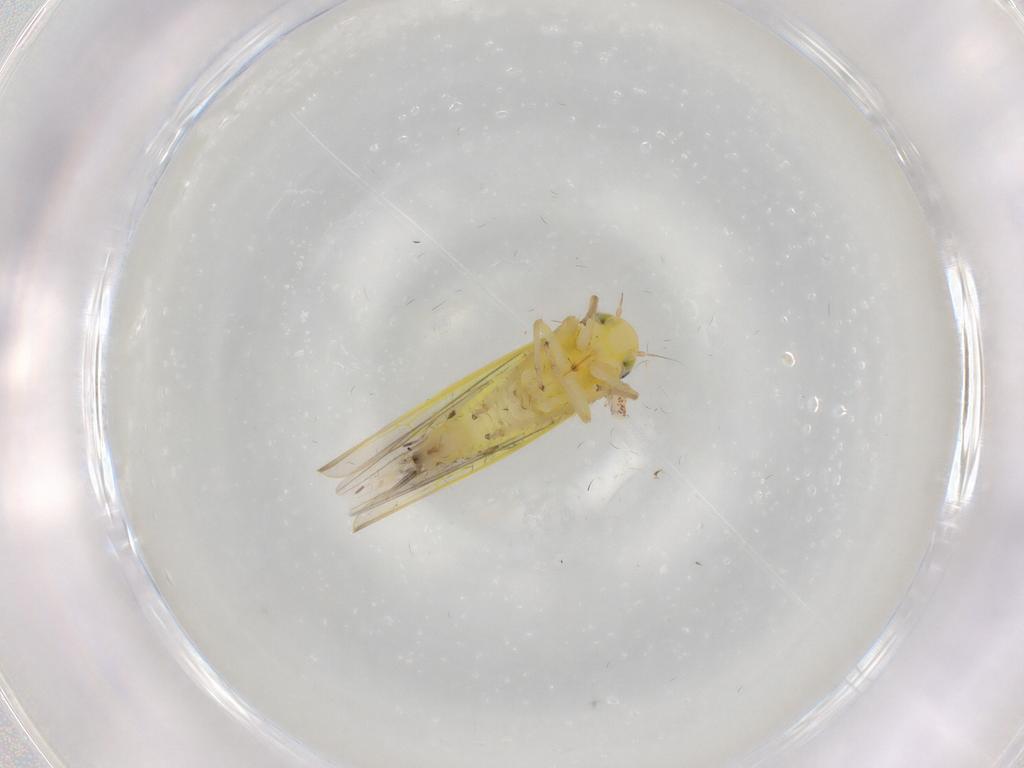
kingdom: Animalia
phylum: Arthropoda
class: Insecta
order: Hemiptera
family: Cicadellidae
